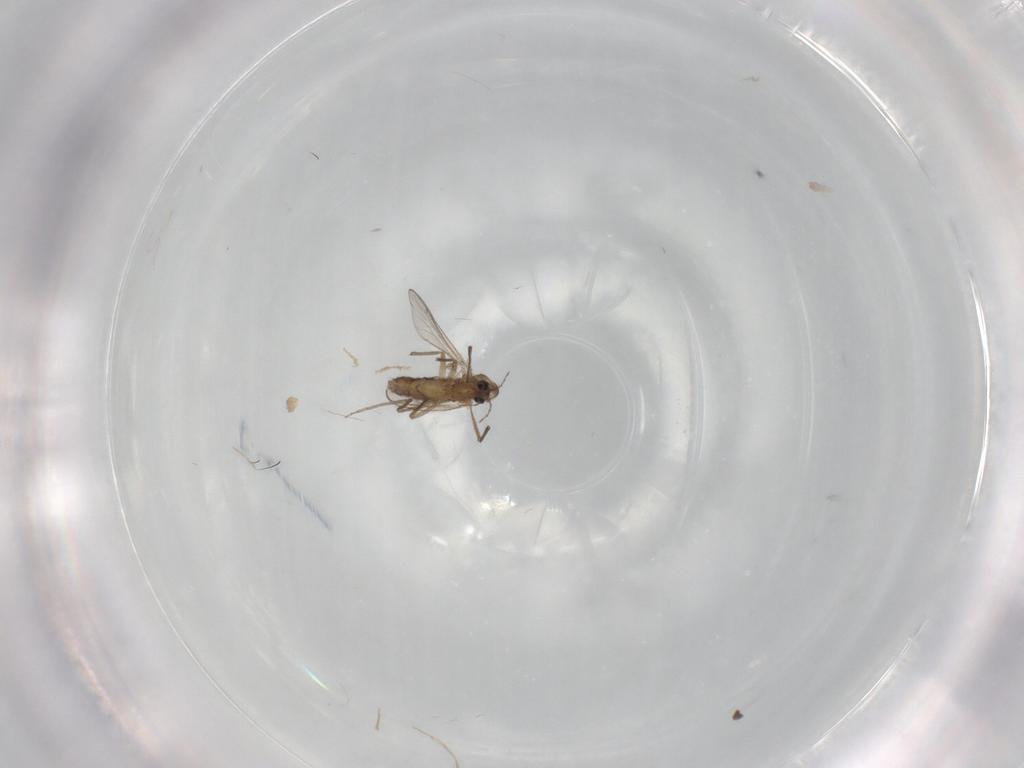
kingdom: Animalia
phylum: Arthropoda
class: Insecta
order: Diptera
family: Chironomidae
